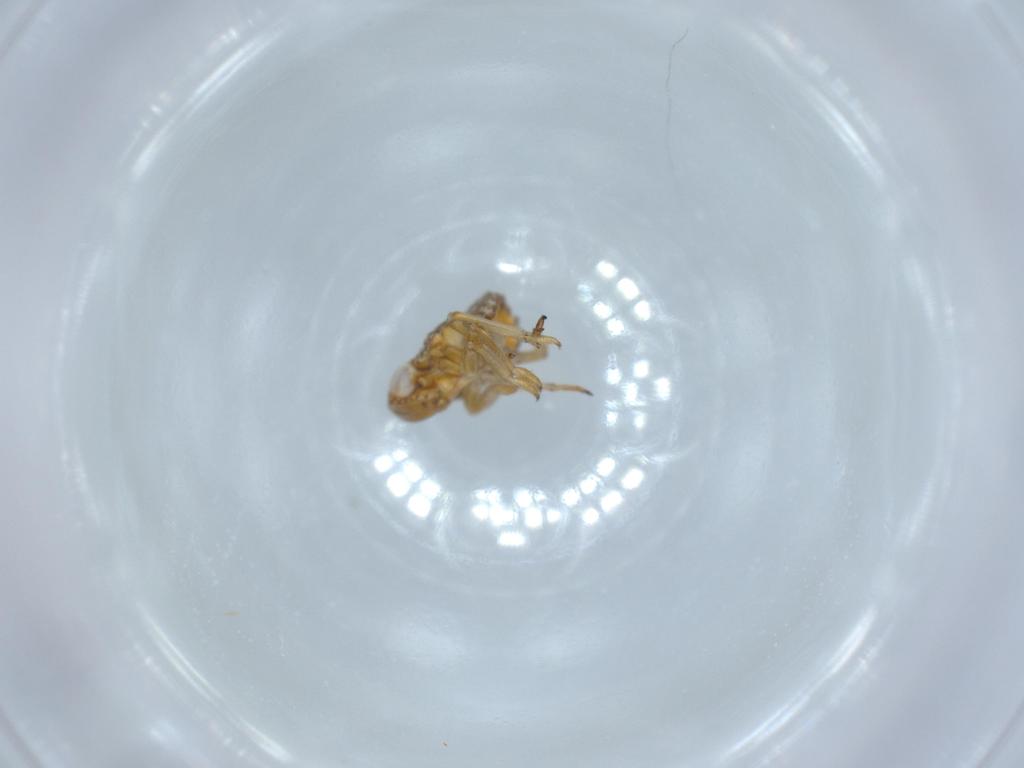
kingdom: Animalia
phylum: Arthropoda
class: Insecta
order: Hemiptera
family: Issidae
